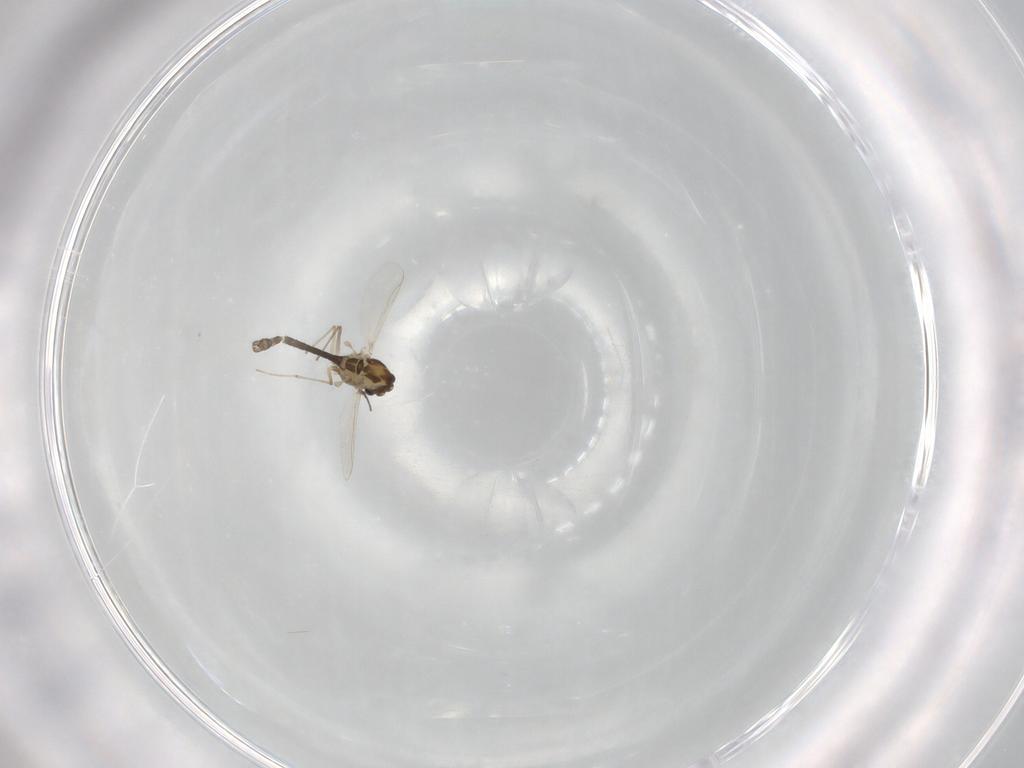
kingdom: Animalia
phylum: Arthropoda
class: Insecta
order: Diptera
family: Chironomidae
